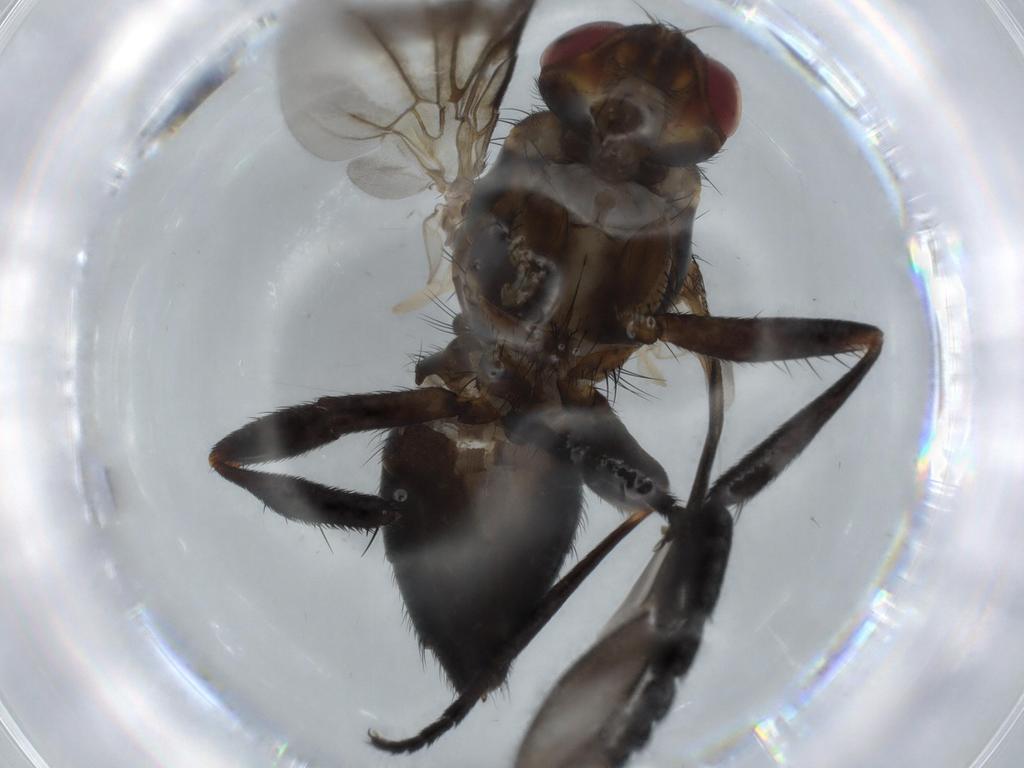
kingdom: Animalia
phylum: Arthropoda
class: Insecta
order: Diptera
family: Calliphoridae
